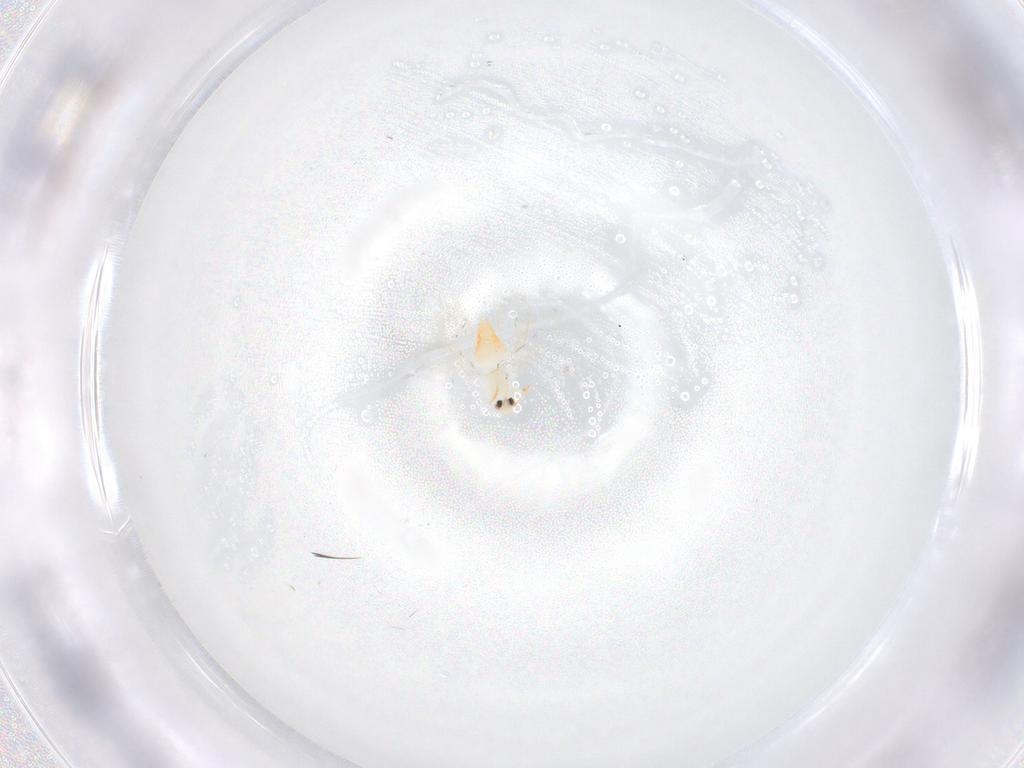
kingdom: Animalia
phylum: Arthropoda
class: Insecta
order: Hemiptera
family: Aleyrodidae
